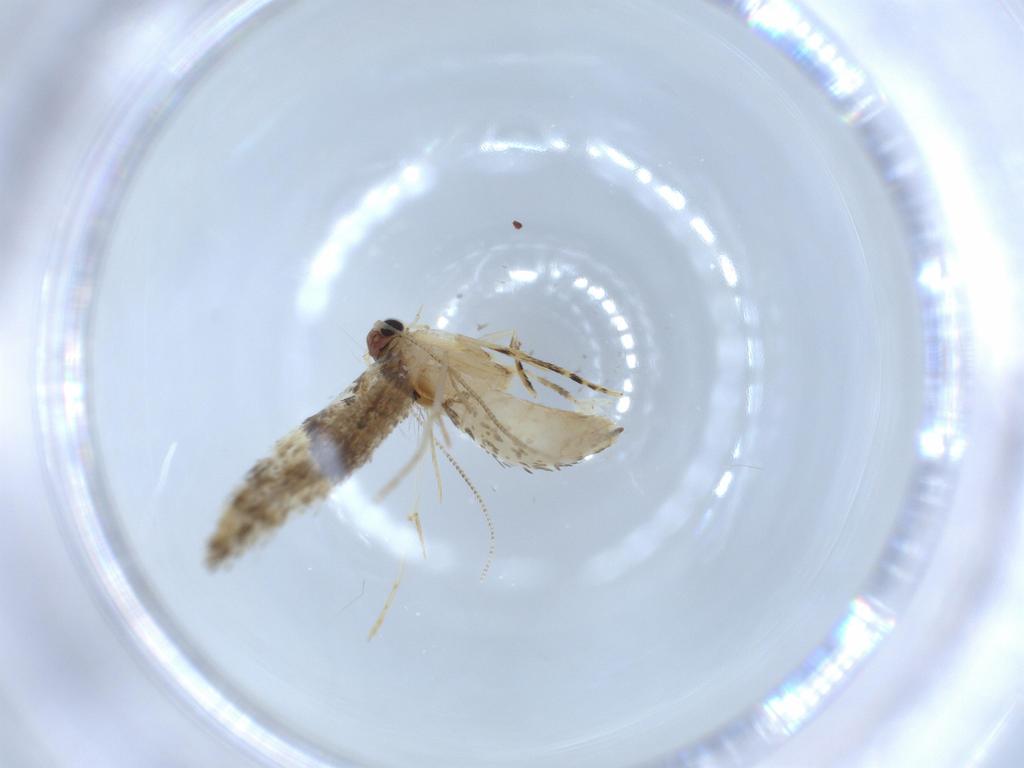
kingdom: Animalia
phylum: Arthropoda
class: Insecta
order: Lepidoptera
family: Tineidae
